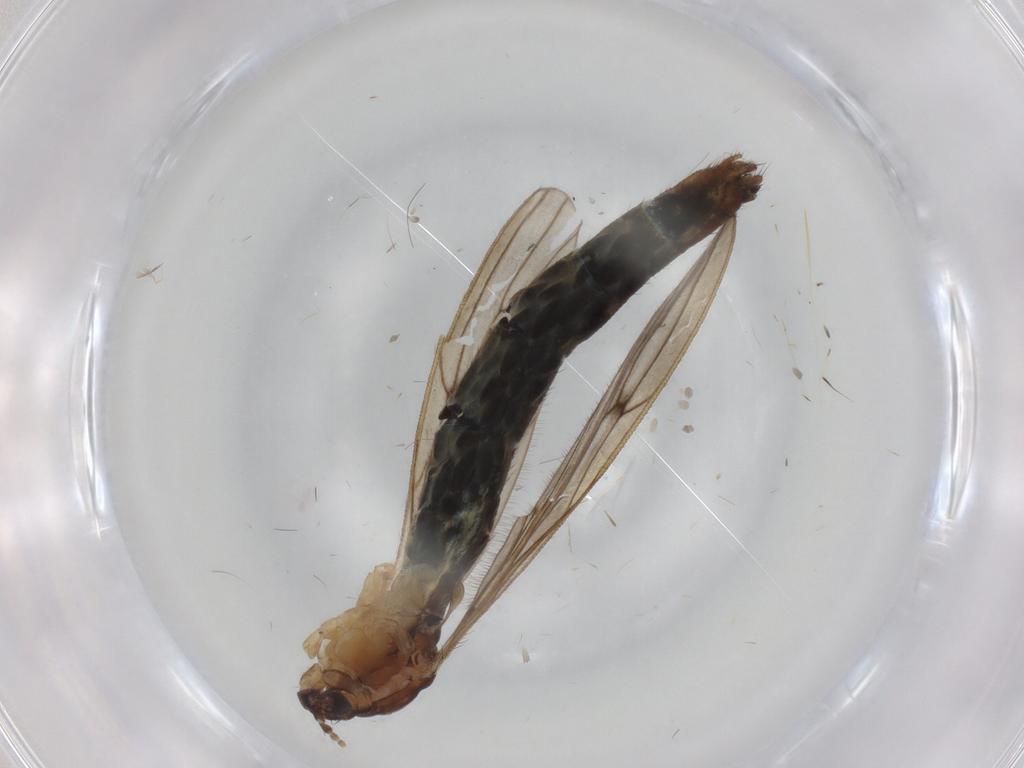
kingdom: Animalia
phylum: Arthropoda
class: Insecta
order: Diptera
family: Limoniidae
